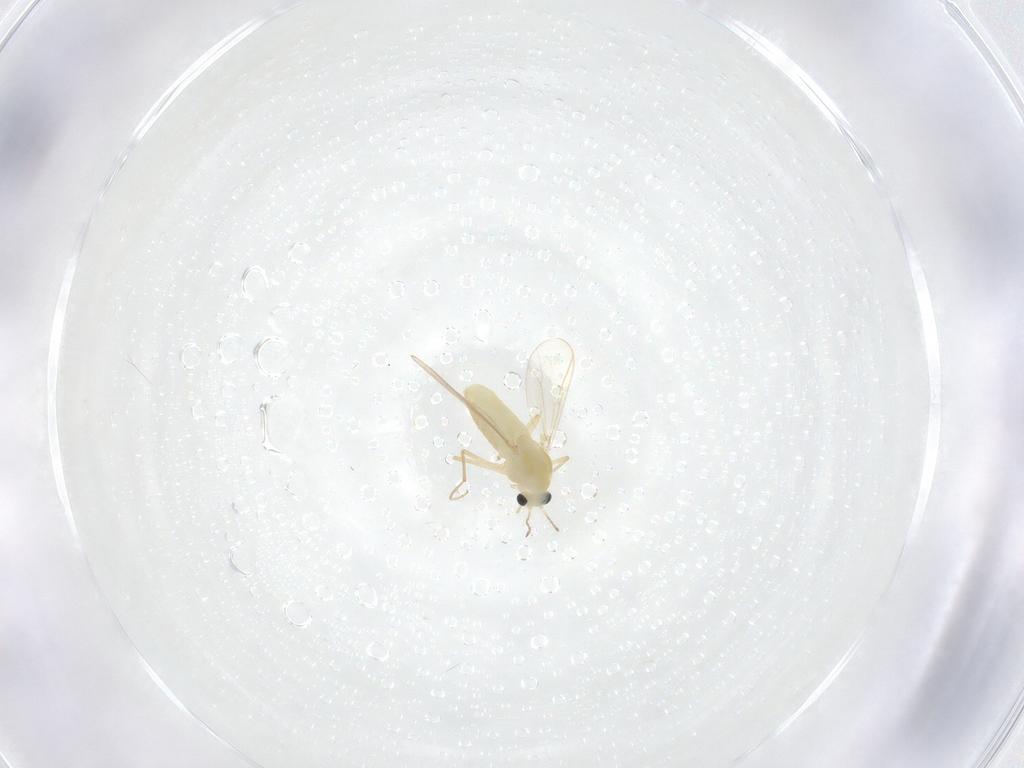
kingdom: Animalia
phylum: Arthropoda
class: Insecta
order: Diptera
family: Chironomidae
